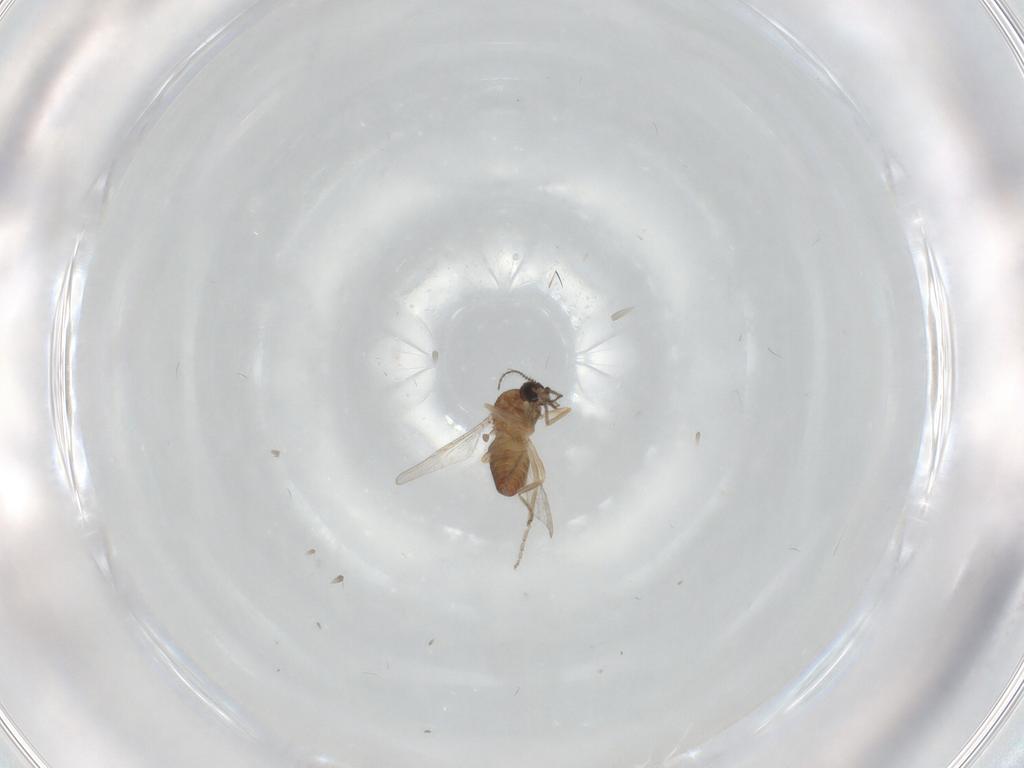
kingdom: Animalia
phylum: Arthropoda
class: Insecta
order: Diptera
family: Ceratopogonidae
